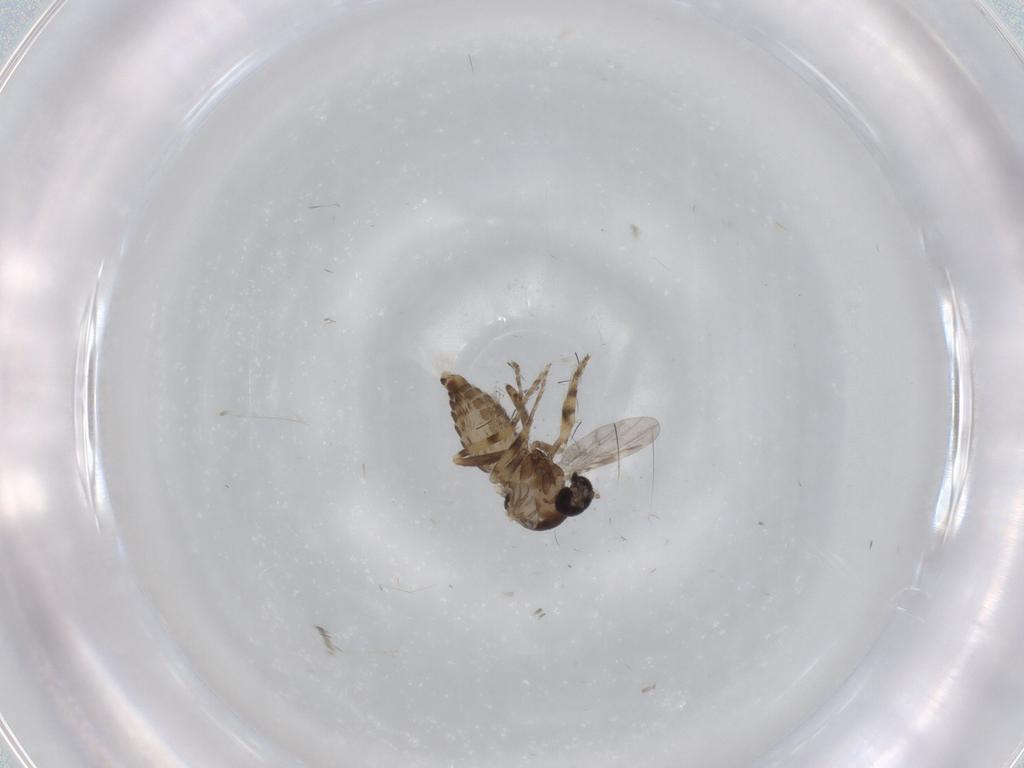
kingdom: Animalia
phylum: Arthropoda
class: Insecta
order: Diptera
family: Ceratopogonidae
